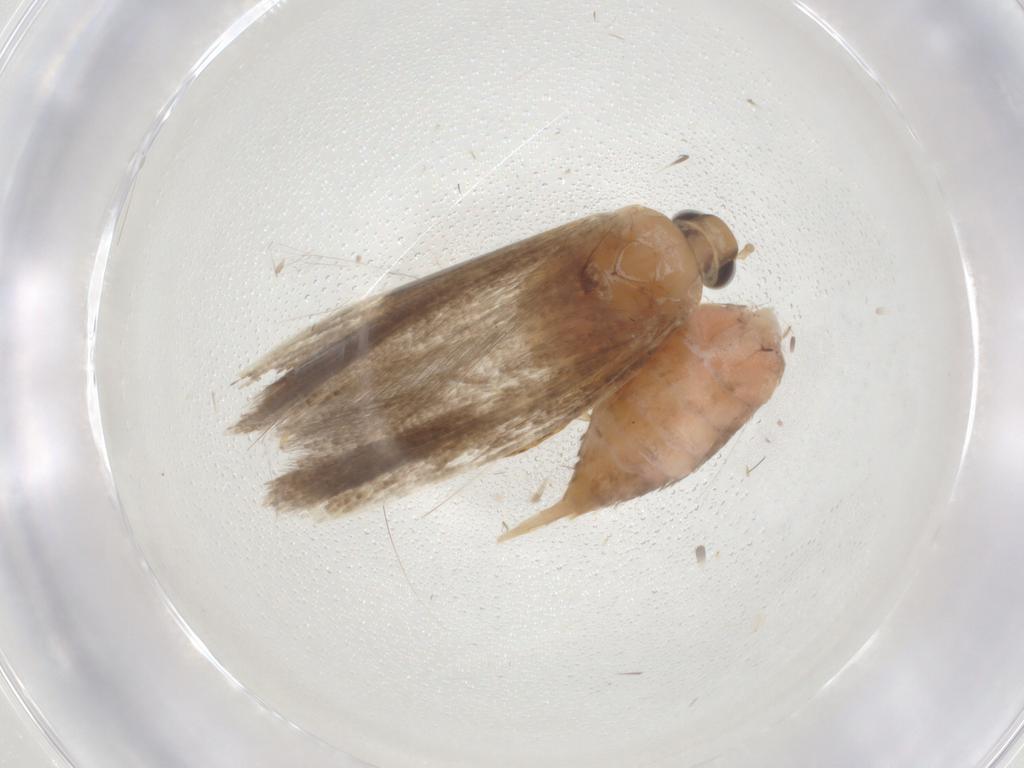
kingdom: Animalia
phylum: Arthropoda
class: Insecta
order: Lepidoptera
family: Gelechiidae
